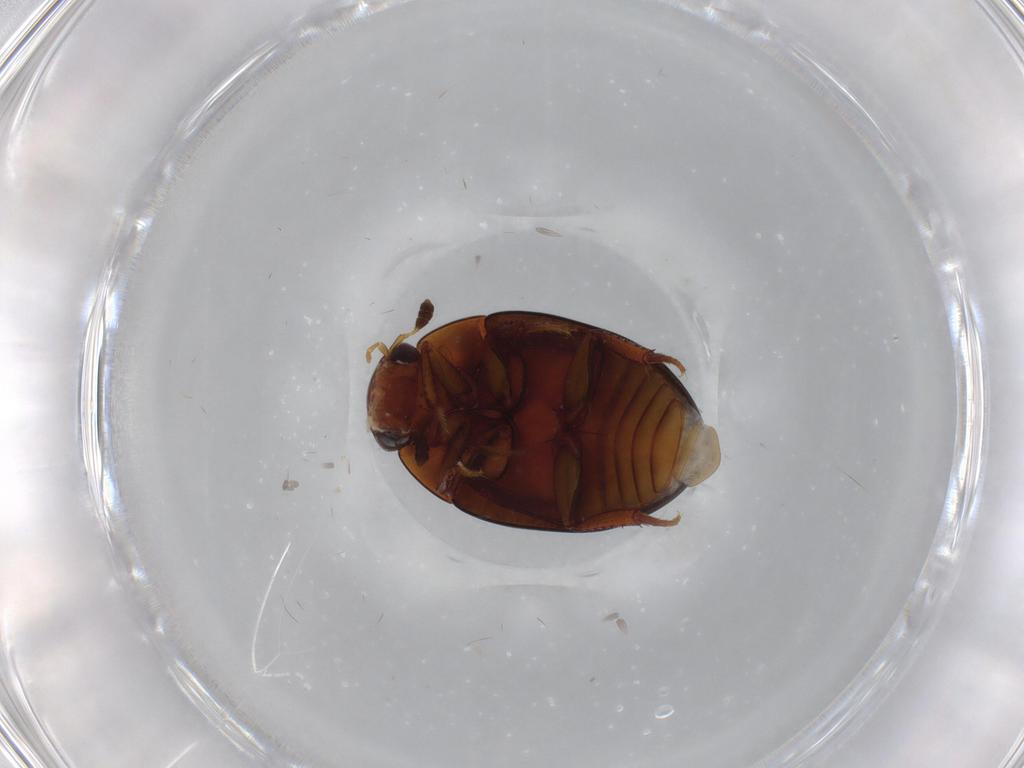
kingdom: Animalia
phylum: Arthropoda
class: Insecta
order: Coleoptera
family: Hydrophilidae
